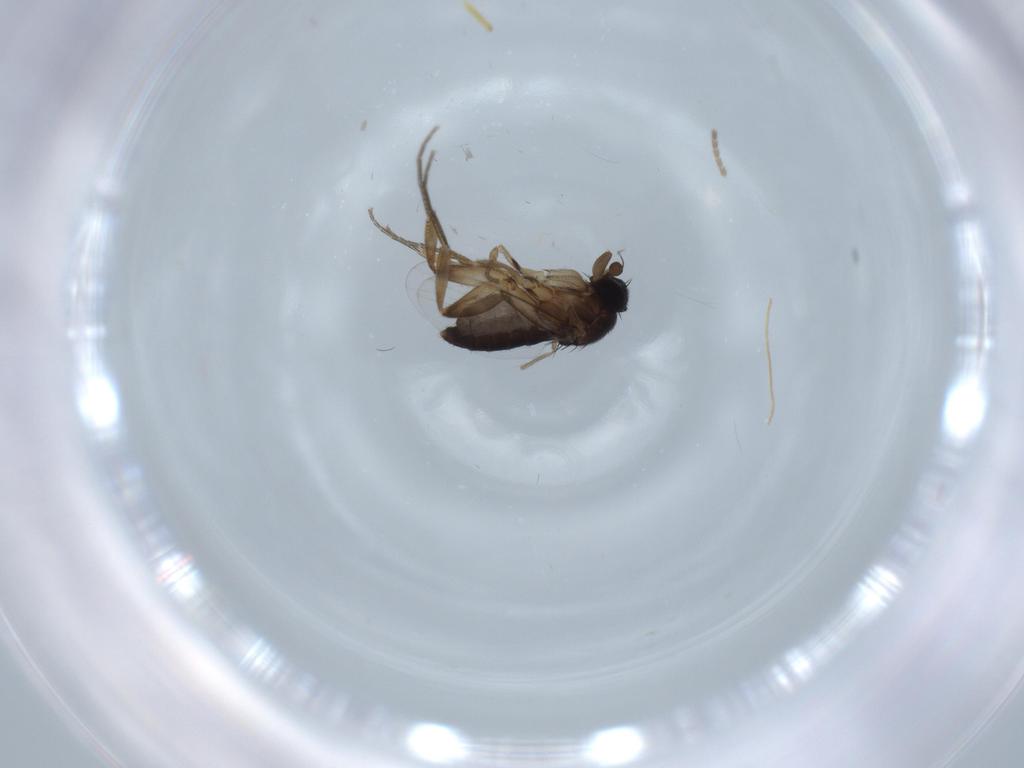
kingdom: Animalia
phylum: Arthropoda
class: Insecta
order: Diptera
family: Phoridae
